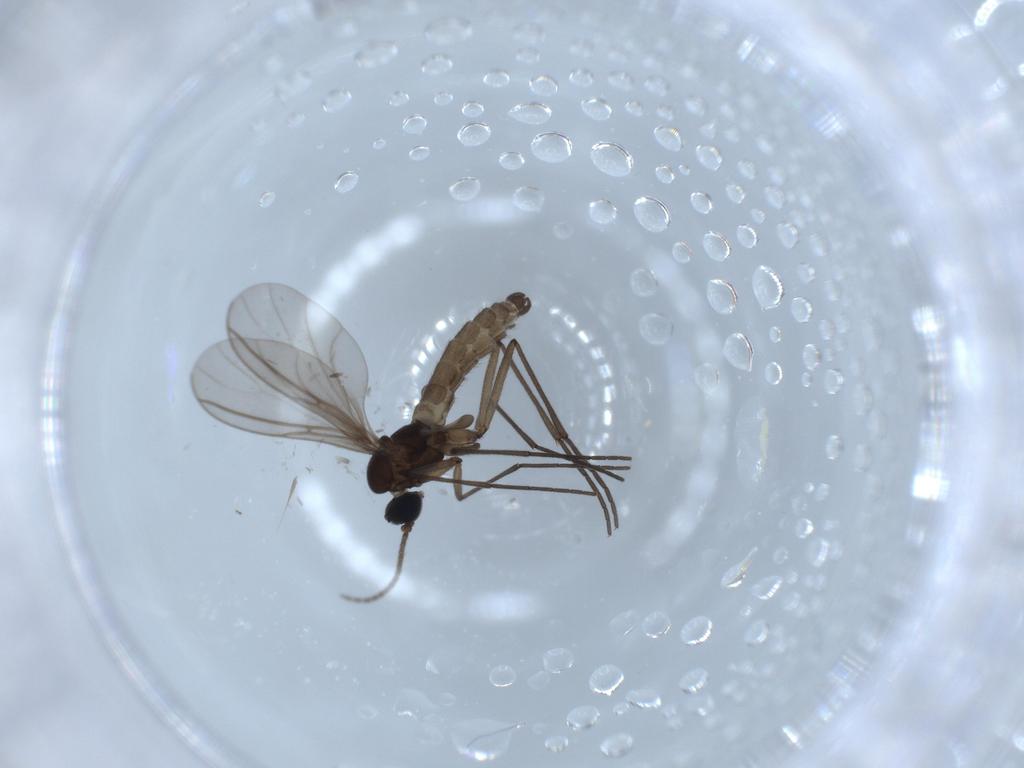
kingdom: Animalia
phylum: Arthropoda
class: Insecta
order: Diptera
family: Sciaridae
